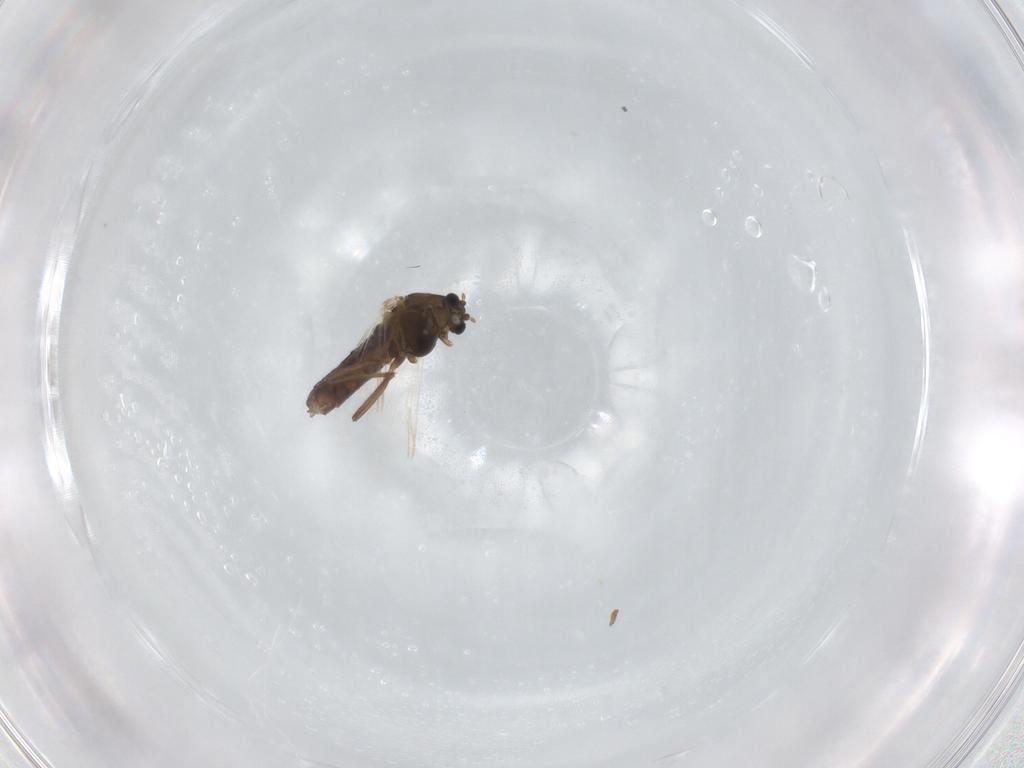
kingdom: Animalia
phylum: Arthropoda
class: Insecta
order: Diptera
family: Chironomidae
